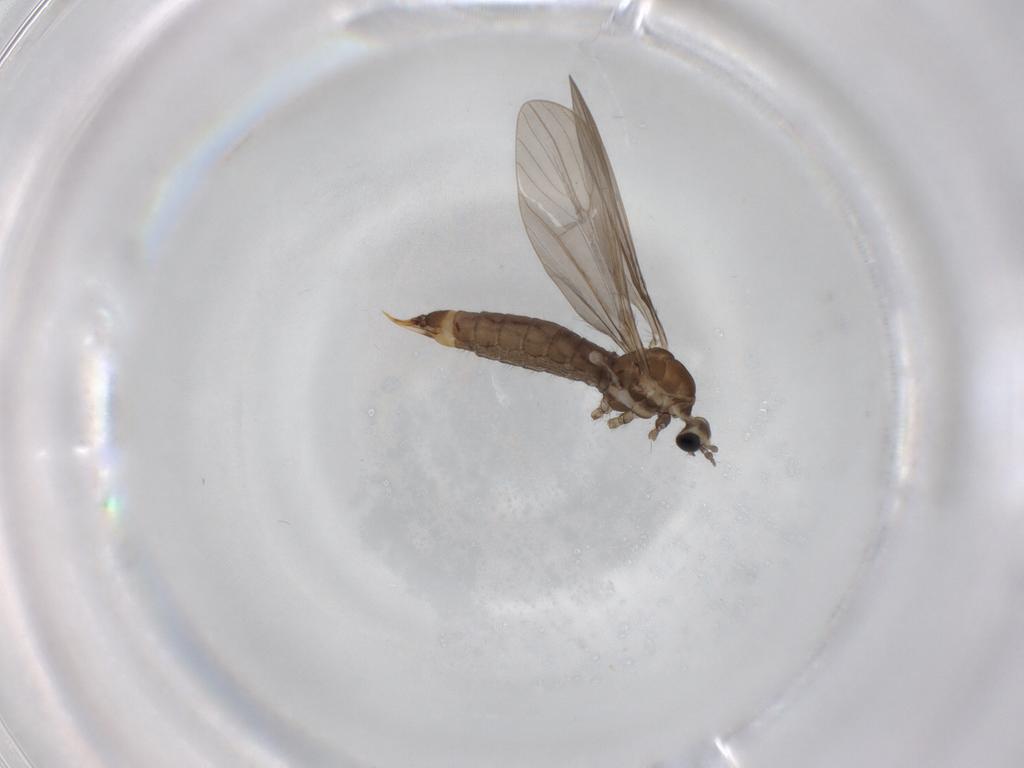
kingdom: Animalia
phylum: Arthropoda
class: Insecta
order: Diptera
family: Limoniidae
